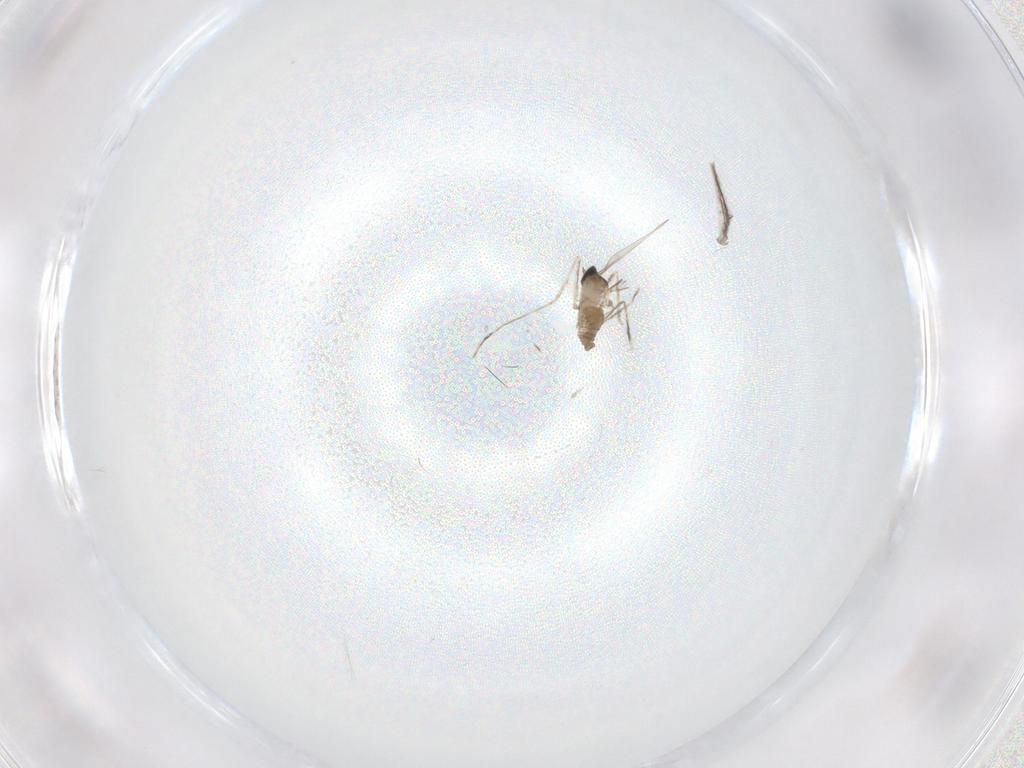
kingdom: Animalia
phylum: Arthropoda
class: Insecta
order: Diptera
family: Cecidomyiidae
